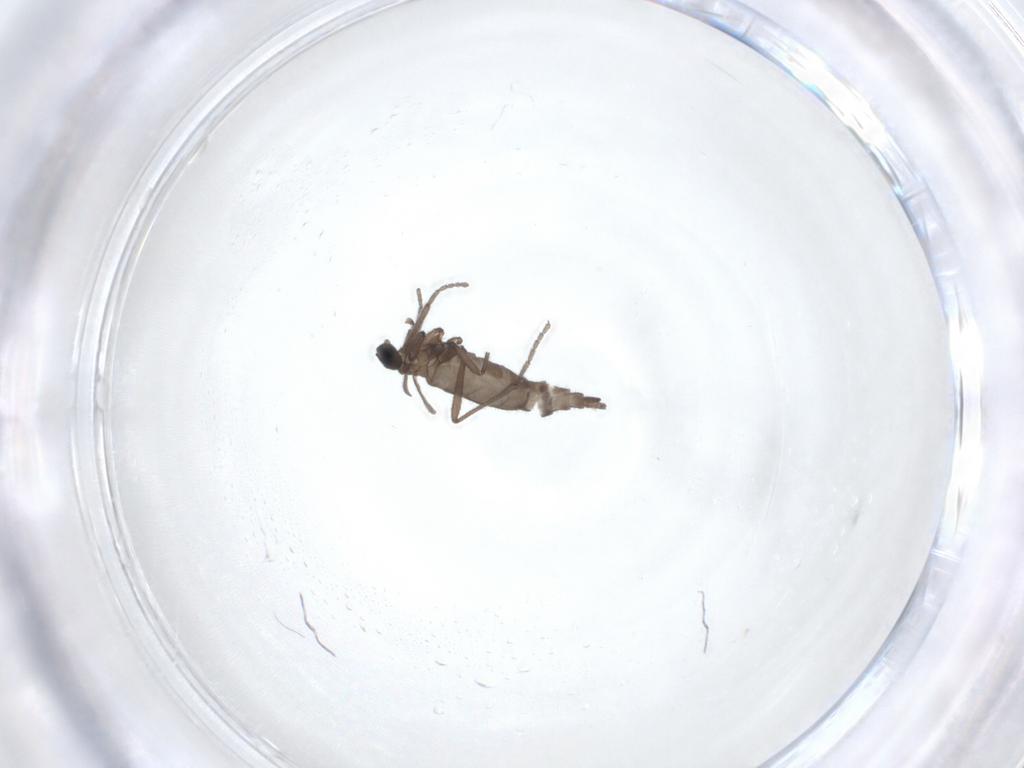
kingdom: Animalia
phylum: Arthropoda
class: Insecta
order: Diptera
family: Sciaridae
